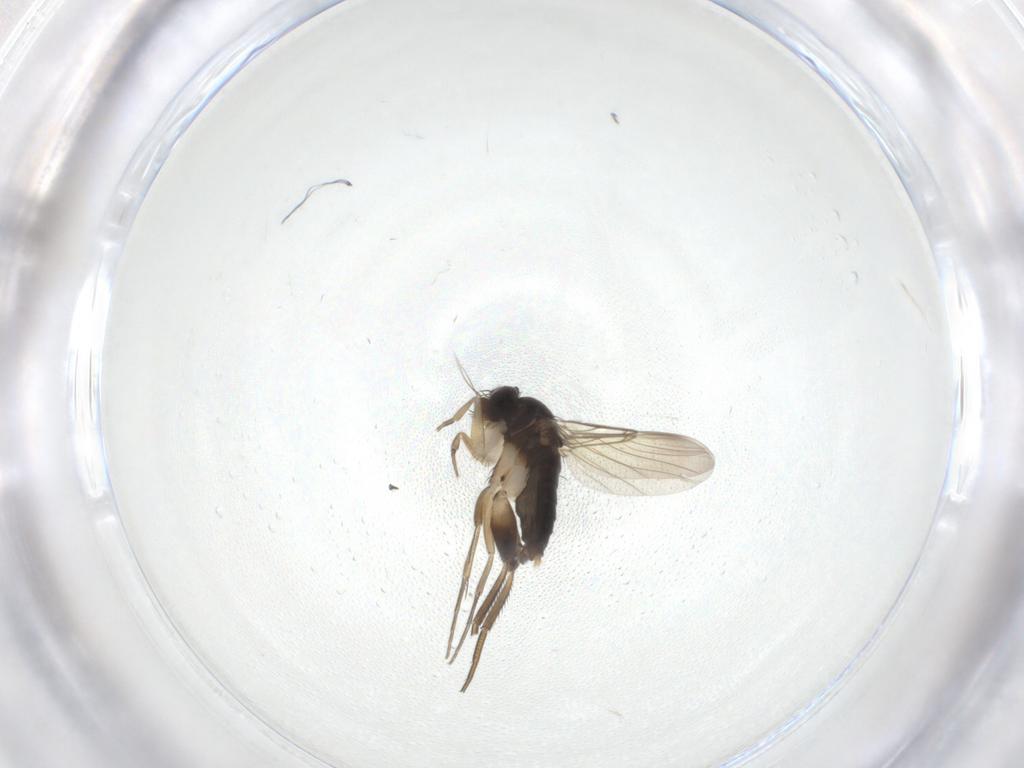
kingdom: Animalia
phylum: Arthropoda
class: Insecta
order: Diptera
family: Phoridae
